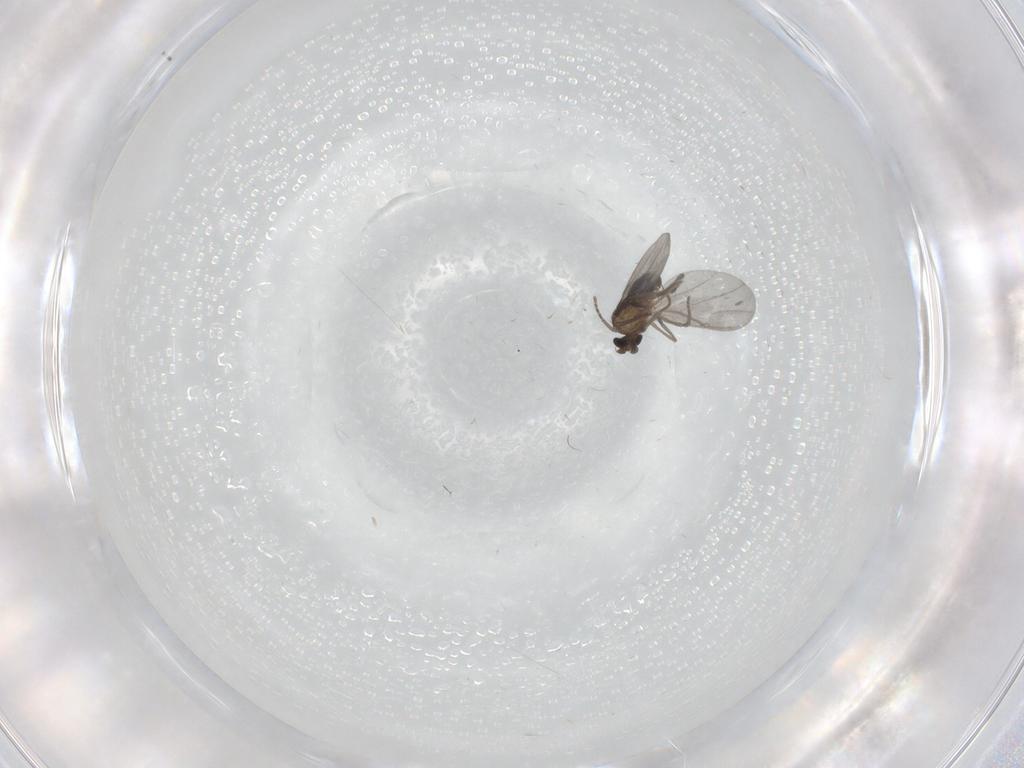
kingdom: Animalia
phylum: Arthropoda
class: Insecta
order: Diptera
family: Phoridae
